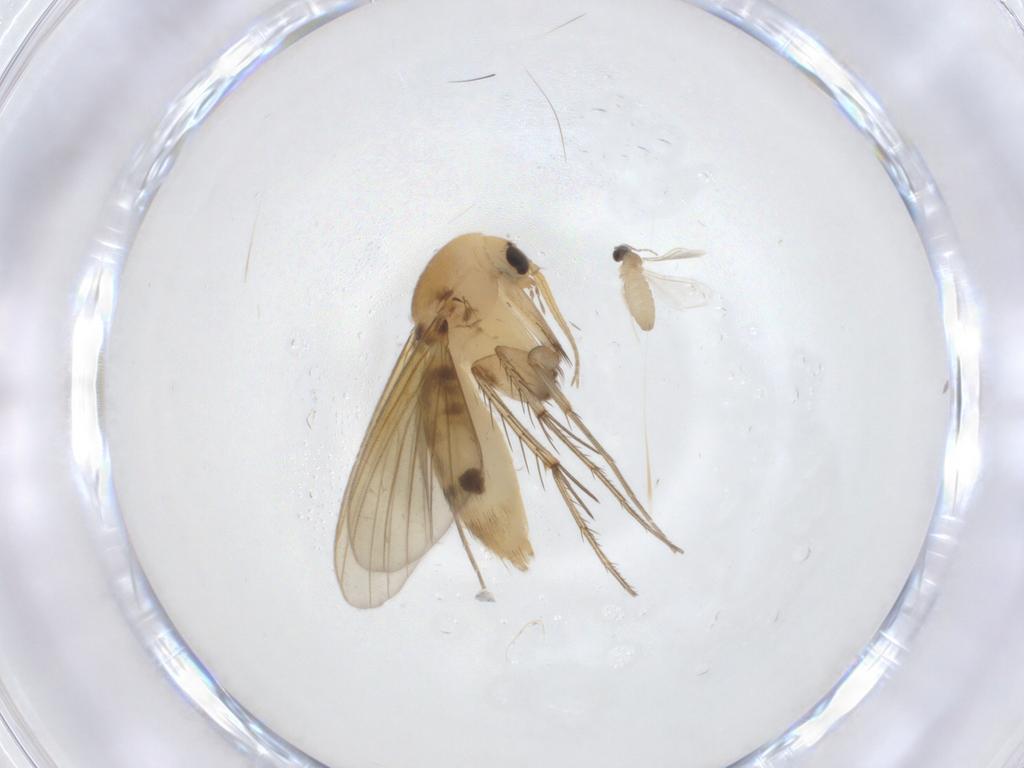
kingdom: Animalia
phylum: Arthropoda
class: Insecta
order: Diptera
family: Mycetophilidae
